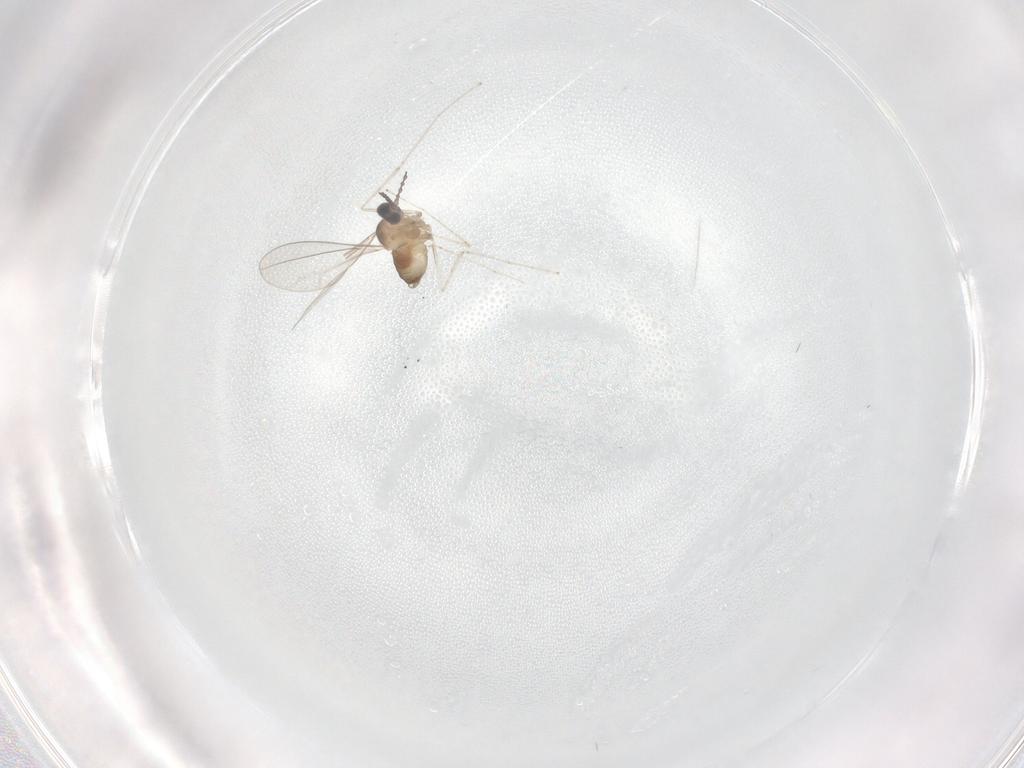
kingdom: Animalia
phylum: Arthropoda
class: Insecta
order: Diptera
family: Cecidomyiidae
